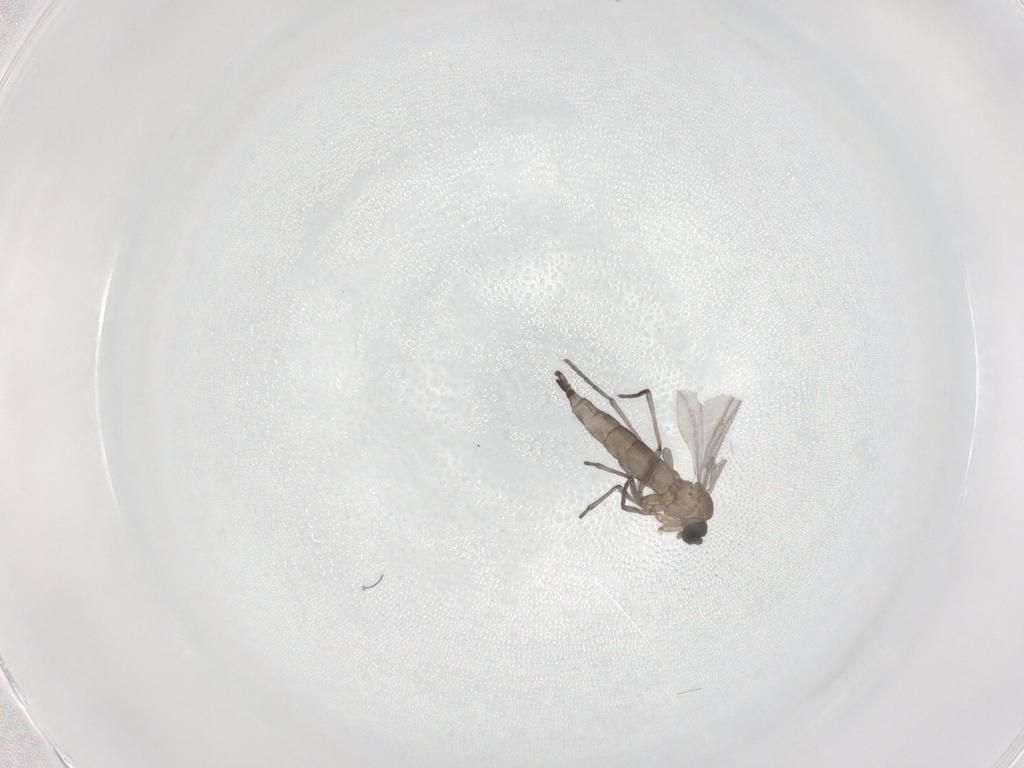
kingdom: Animalia
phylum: Arthropoda
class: Insecta
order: Diptera
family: Sciaridae
